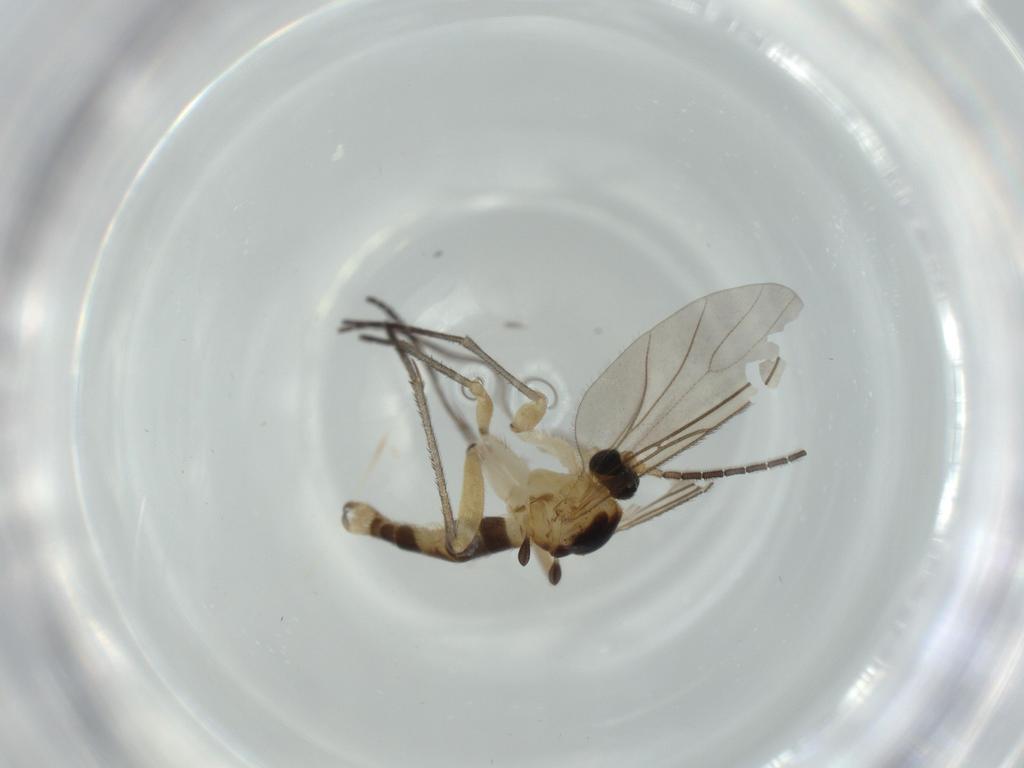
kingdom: Animalia
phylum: Arthropoda
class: Insecta
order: Diptera
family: Sciaridae
